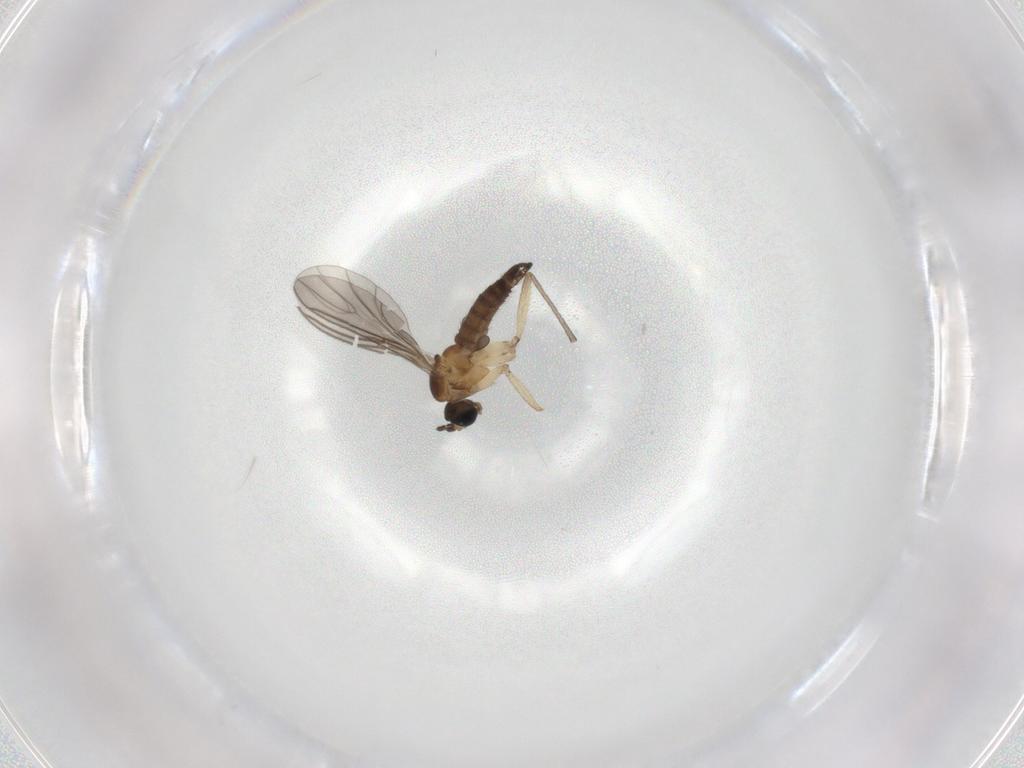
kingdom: Animalia
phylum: Arthropoda
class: Insecta
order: Diptera
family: Sciaridae
